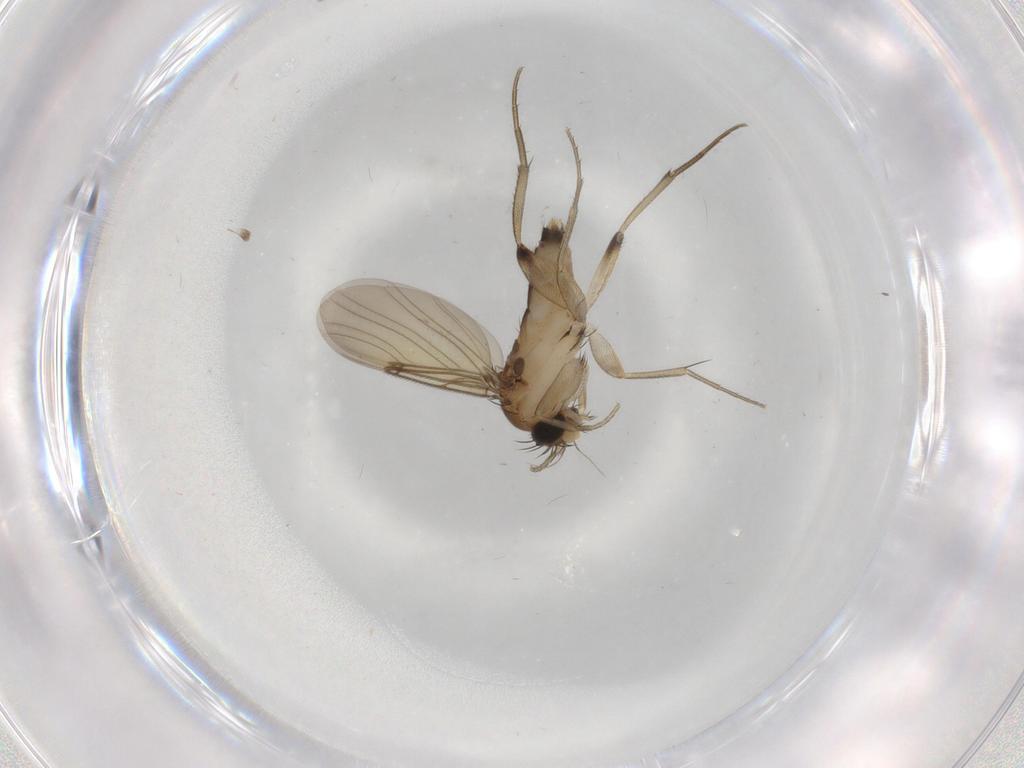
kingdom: Animalia
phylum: Arthropoda
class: Insecta
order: Diptera
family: Phoridae
